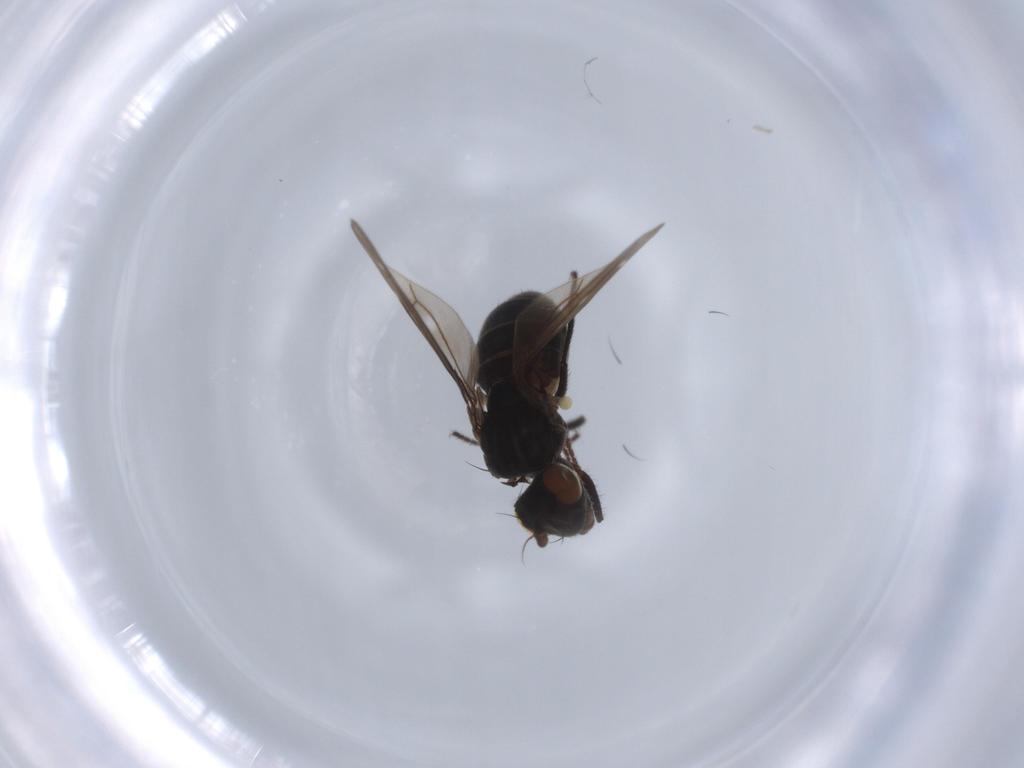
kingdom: Animalia
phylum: Arthropoda
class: Insecta
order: Diptera
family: Ephydridae
